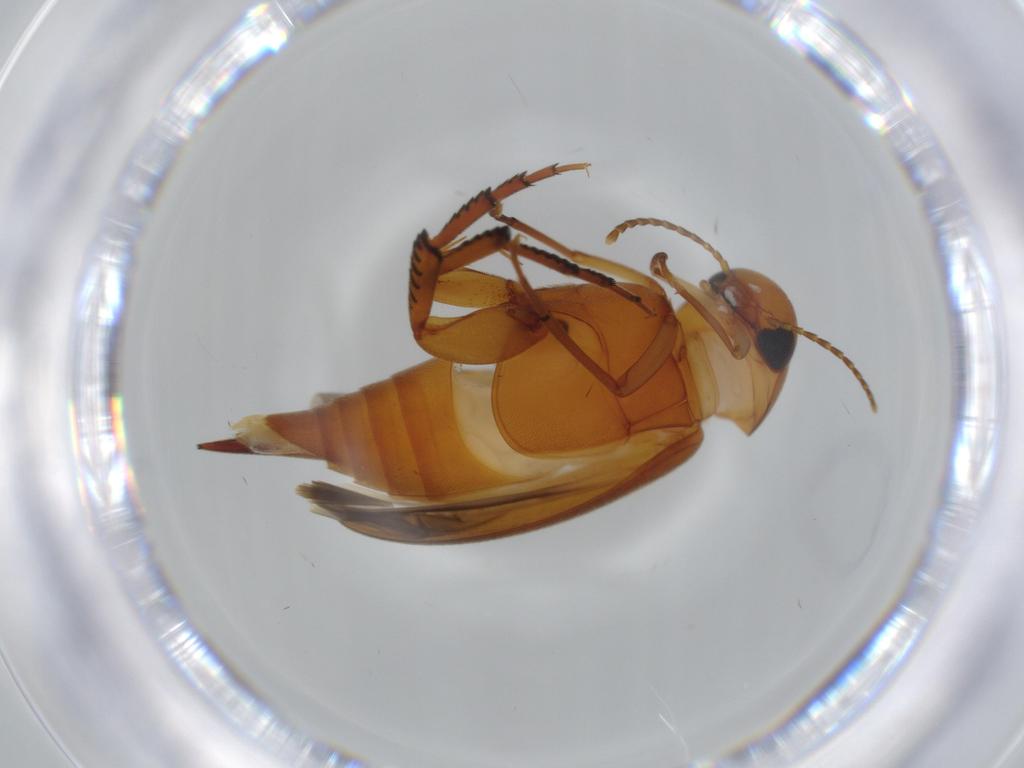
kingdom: Animalia
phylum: Arthropoda
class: Insecta
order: Coleoptera
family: Mordellidae
